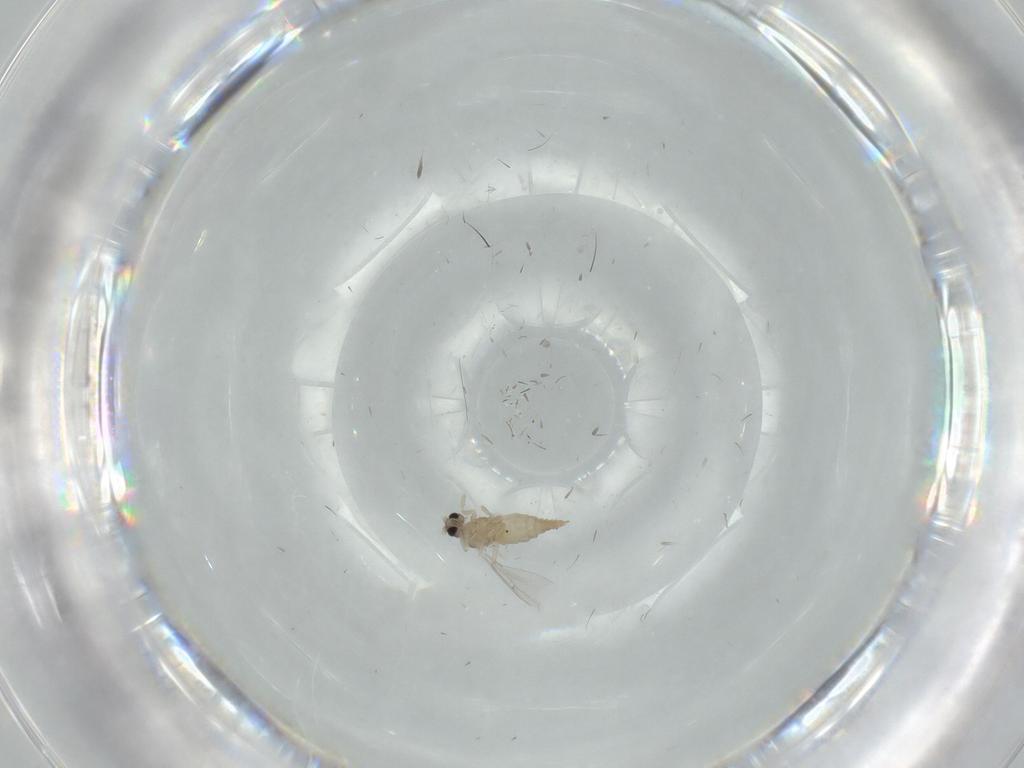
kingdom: Animalia
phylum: Arthropoda
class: Insecta
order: Diptera
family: Cecidomyiidae
